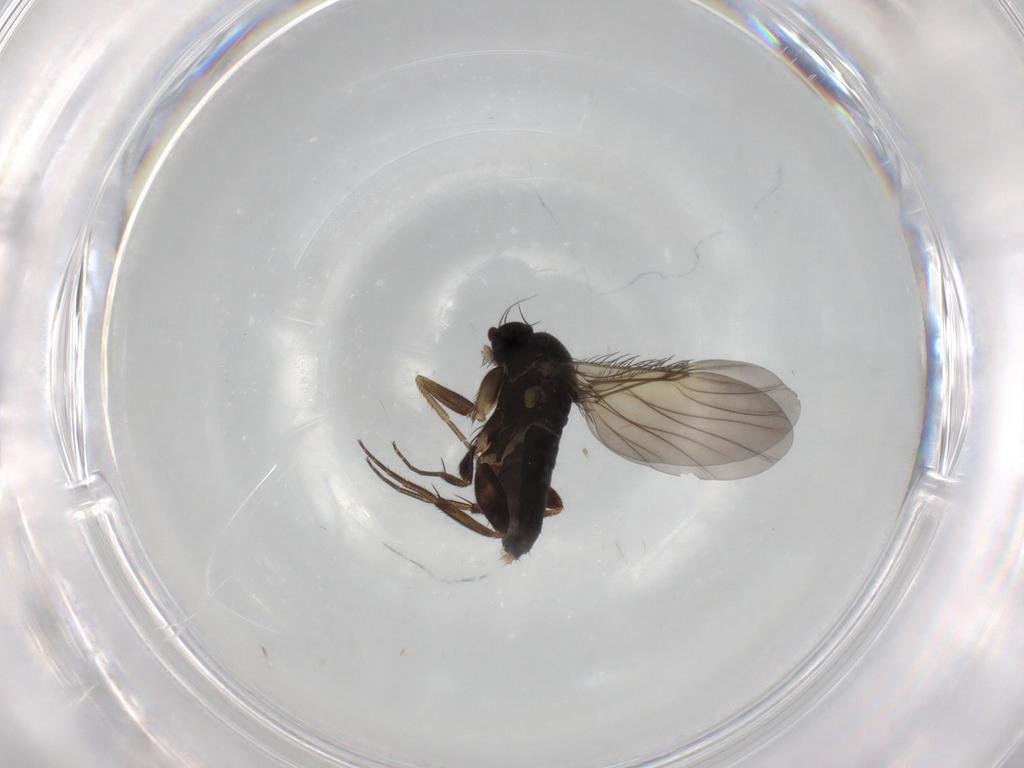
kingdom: Animalia
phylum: Arthropoda
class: Insecta
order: Diptera
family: Phoridae
